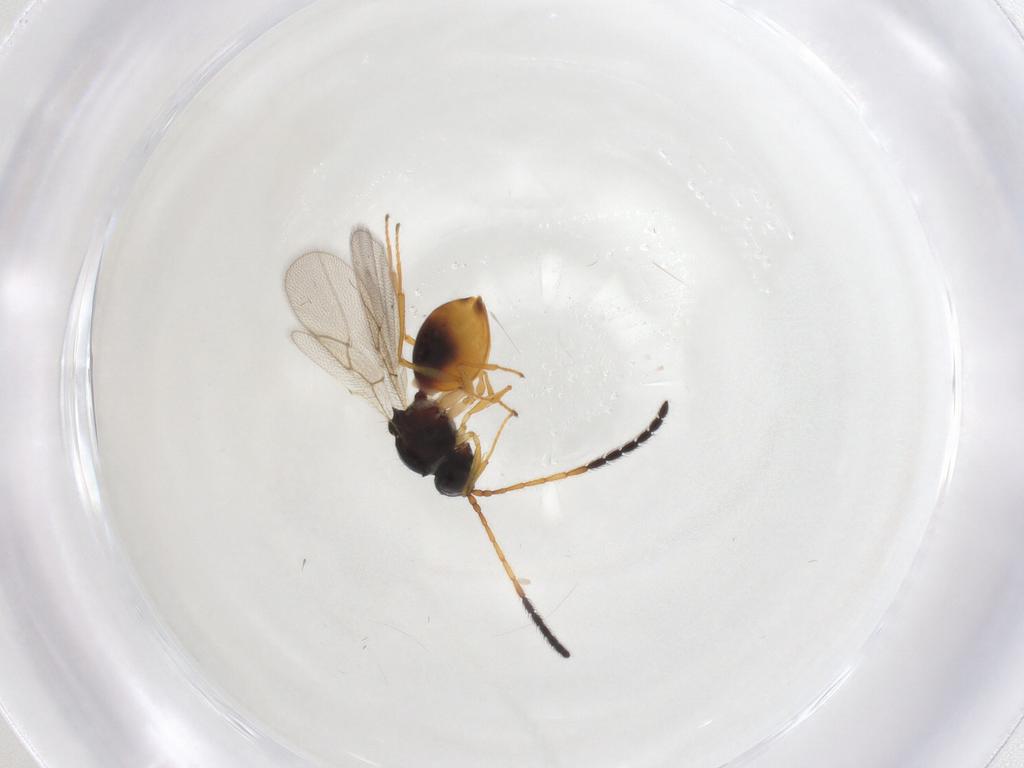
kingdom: Animalia
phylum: Arthropoda
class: Insecta
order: Hymenoptera
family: Figitidae
